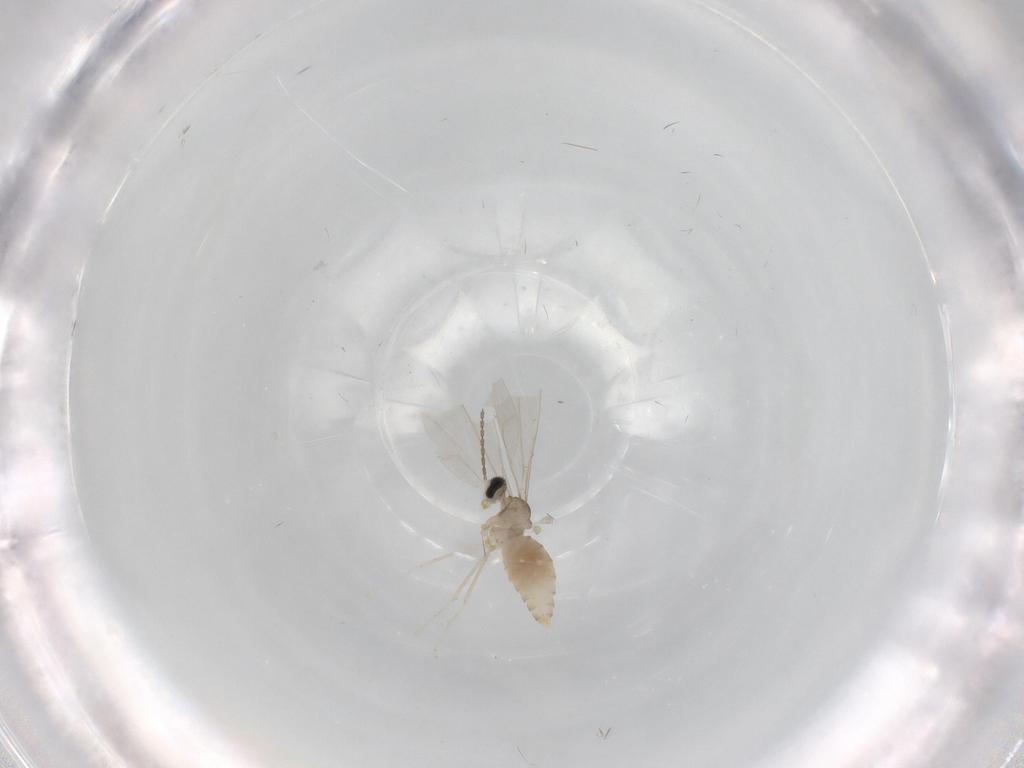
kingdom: Animalia
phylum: Arthropoda
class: Insecta
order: Diptera
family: Cecidomyiidae
